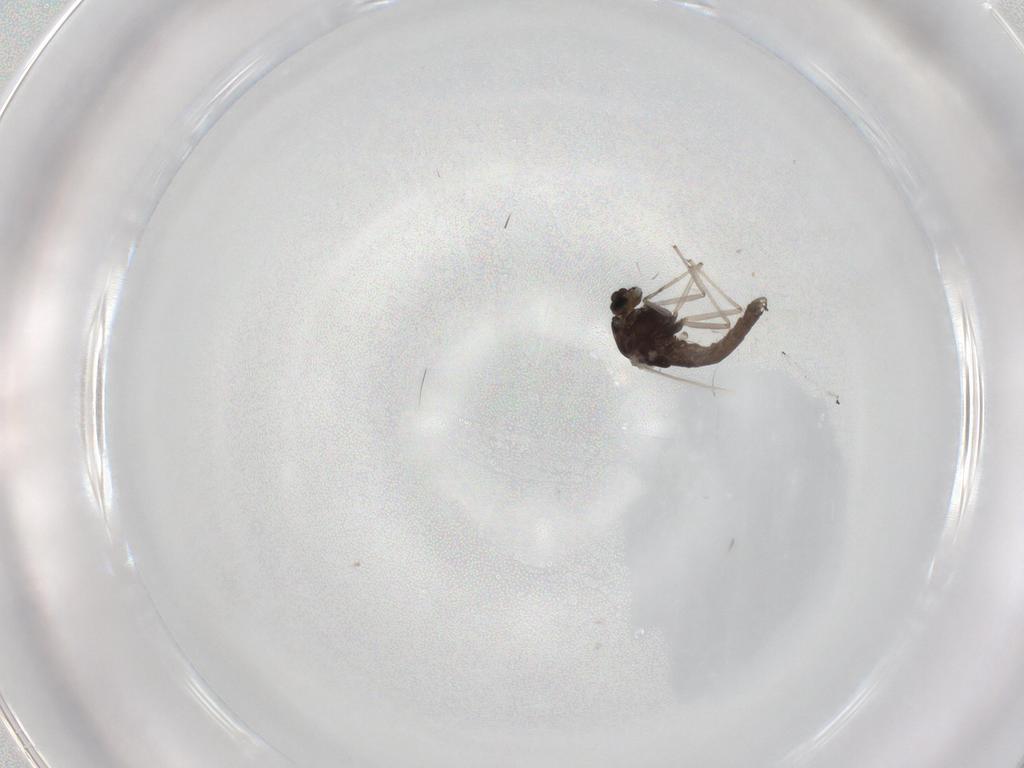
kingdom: Animalia
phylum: Arthropoda
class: Insecta
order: Diptera
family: Chironomidae
